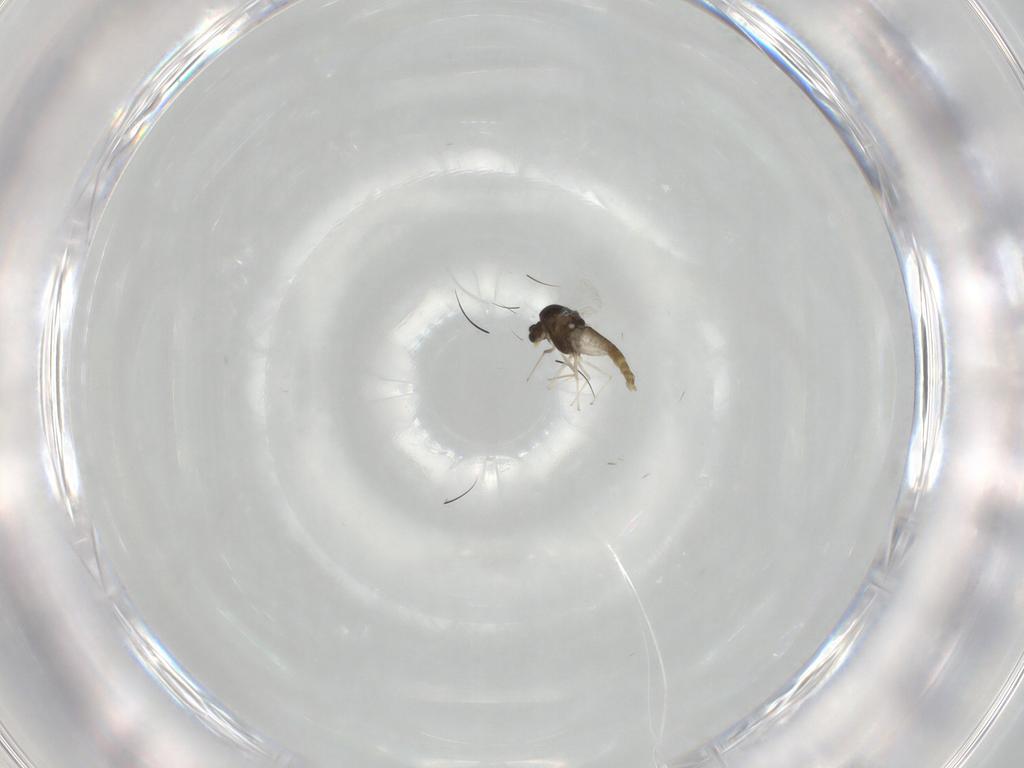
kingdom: Animalia
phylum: Arthropoda
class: Insecta
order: Diptera
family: Chironomidae
